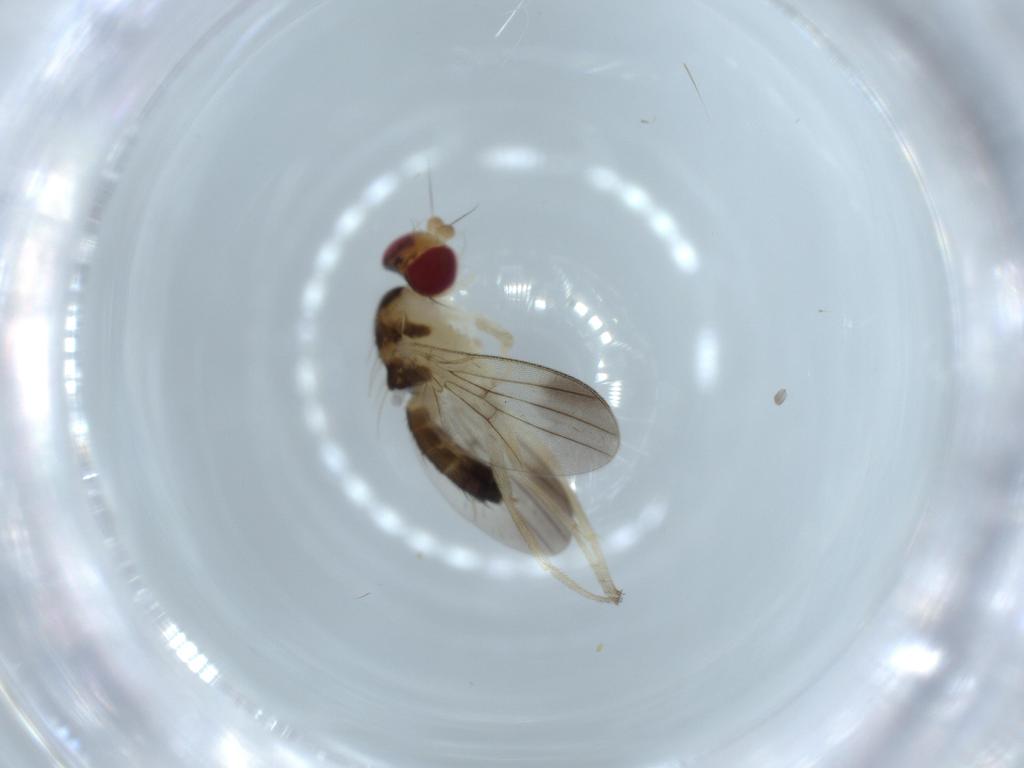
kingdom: Animalia
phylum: Arthropoda
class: Insecta
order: Diptera
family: Clusiidae
